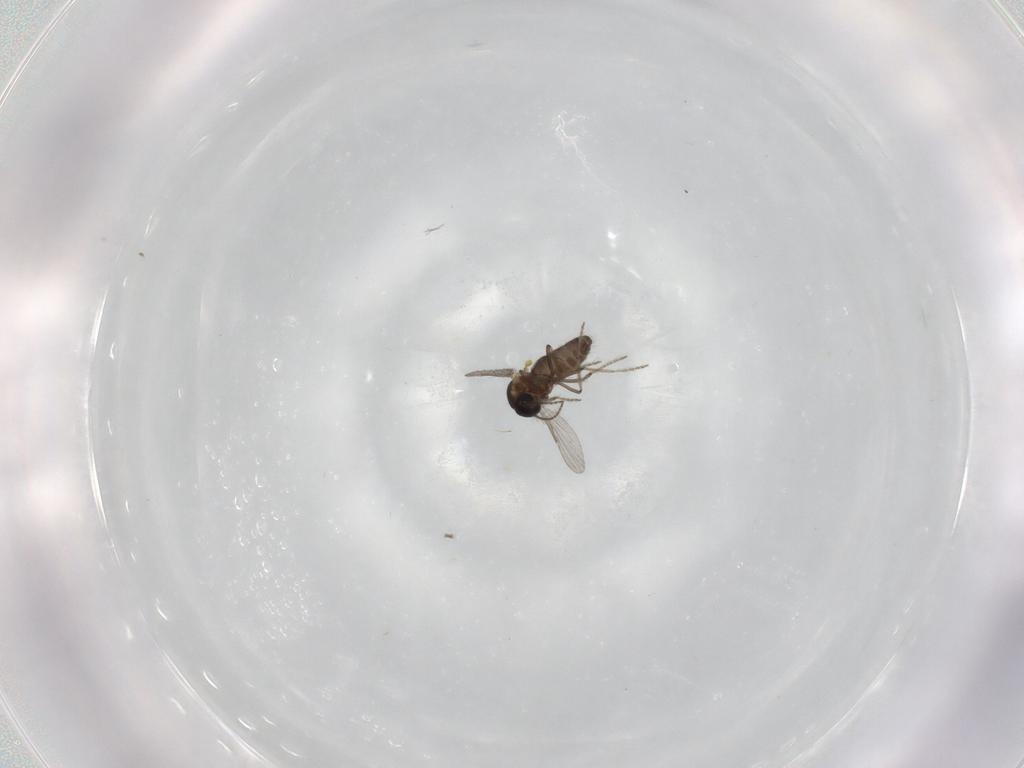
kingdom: Animalia
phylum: Arthropoda
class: Insecta
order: Diptera
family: Ceratopogonidae
